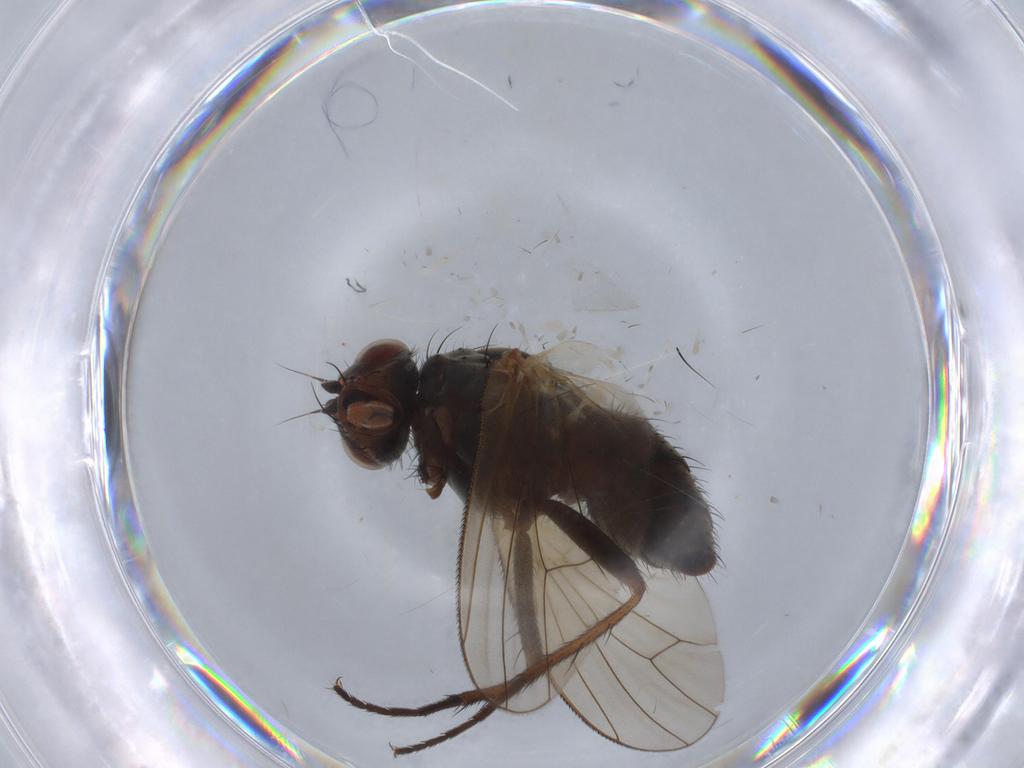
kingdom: Animalia
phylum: Arthropoda
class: Insecta
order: Diptera
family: Anthomyiidae
